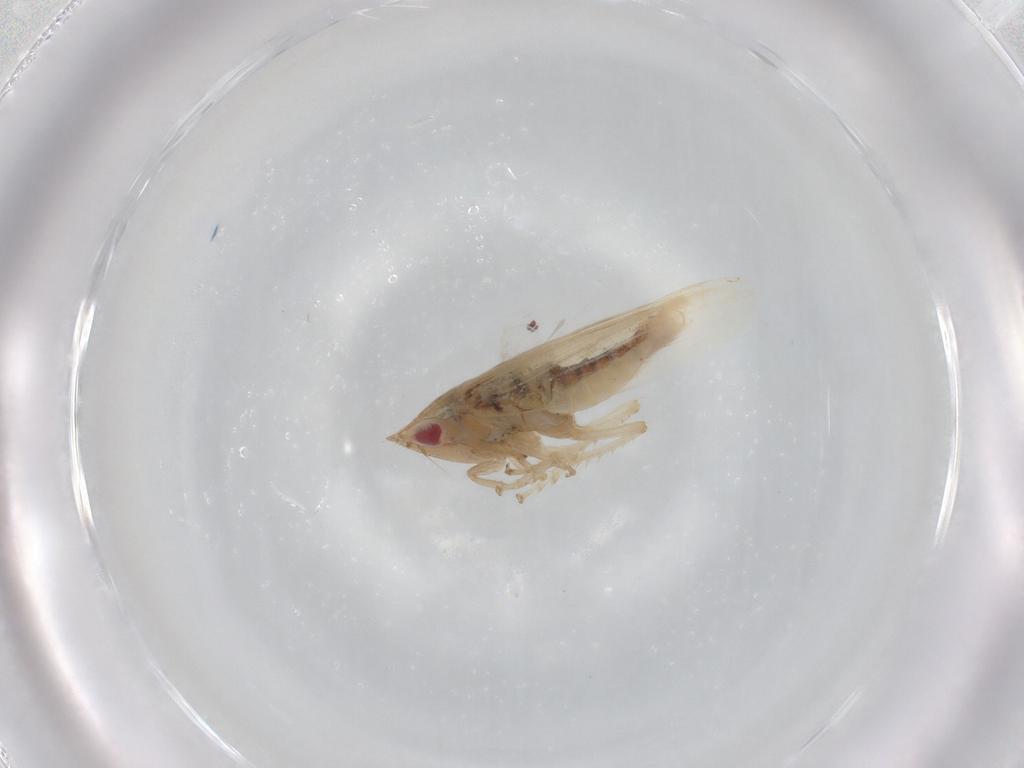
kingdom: Animalia
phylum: Arthropoda
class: Insecta
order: Hemiptera
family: Cicadellidae
